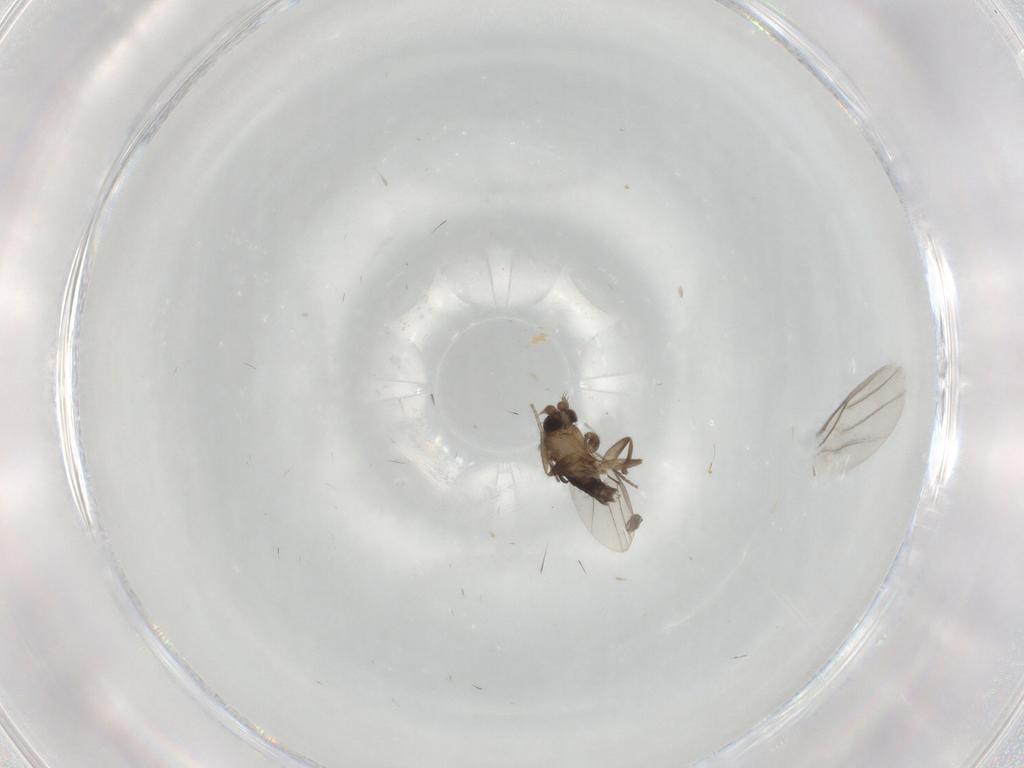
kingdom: Animalia
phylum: Arthropoda
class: Insecta
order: Diptera
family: Phoridae
